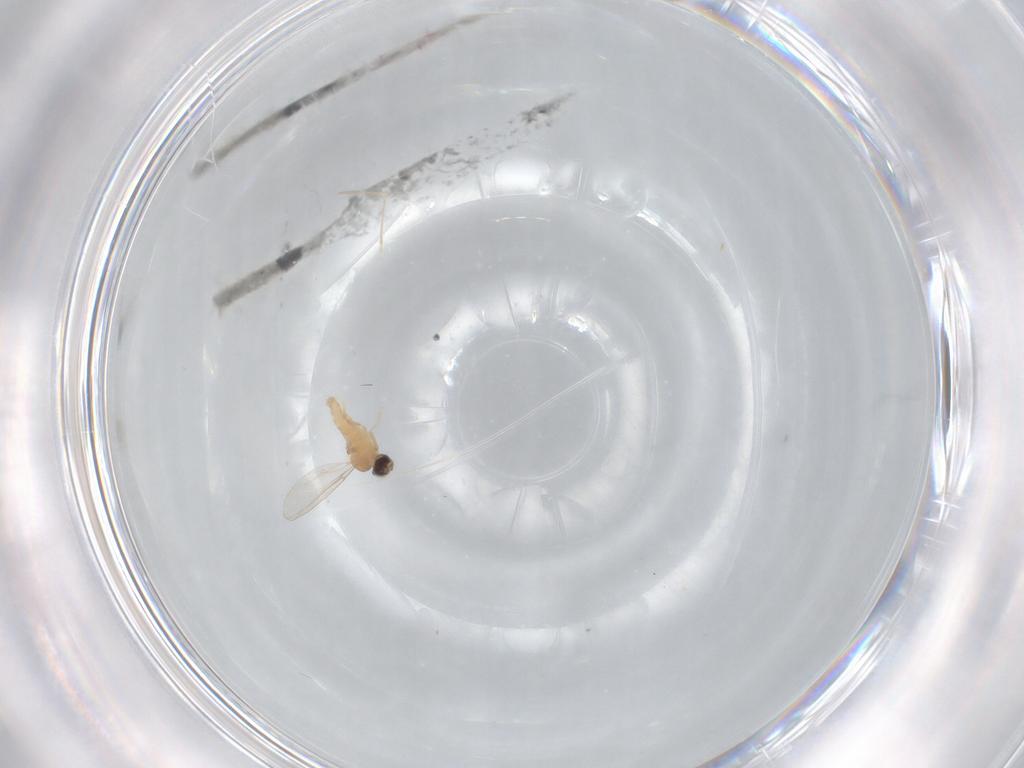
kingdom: Animalia
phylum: Arthropoda
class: Insecta
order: Diptera
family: Cecidomyiidae
